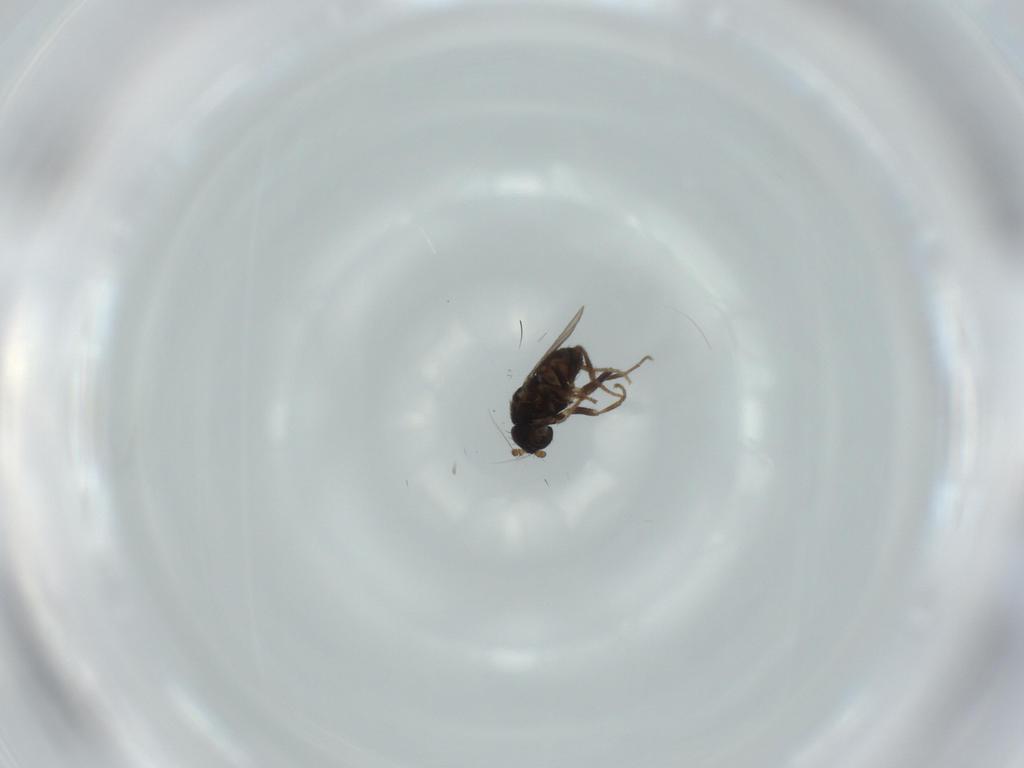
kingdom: Animalia
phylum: Arthropoda
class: Insecta
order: Diptera
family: Sphaeroceridae
